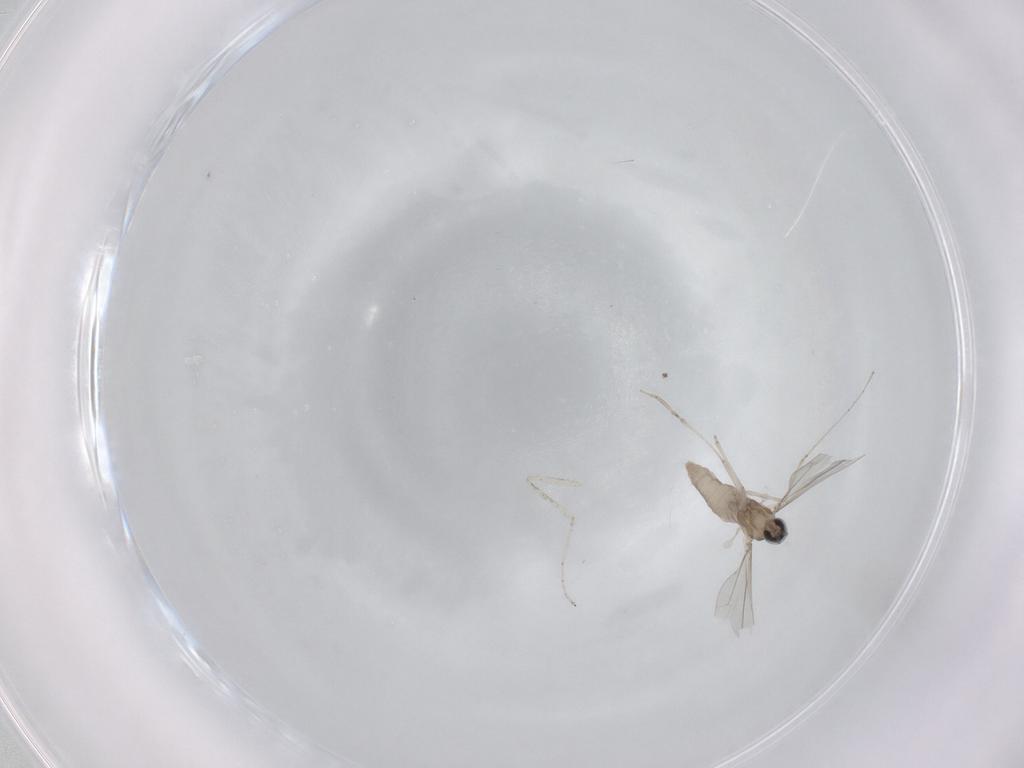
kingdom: Animalia
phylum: Arthropoda
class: Insecta
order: Diptera
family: Cecidomyiidae
